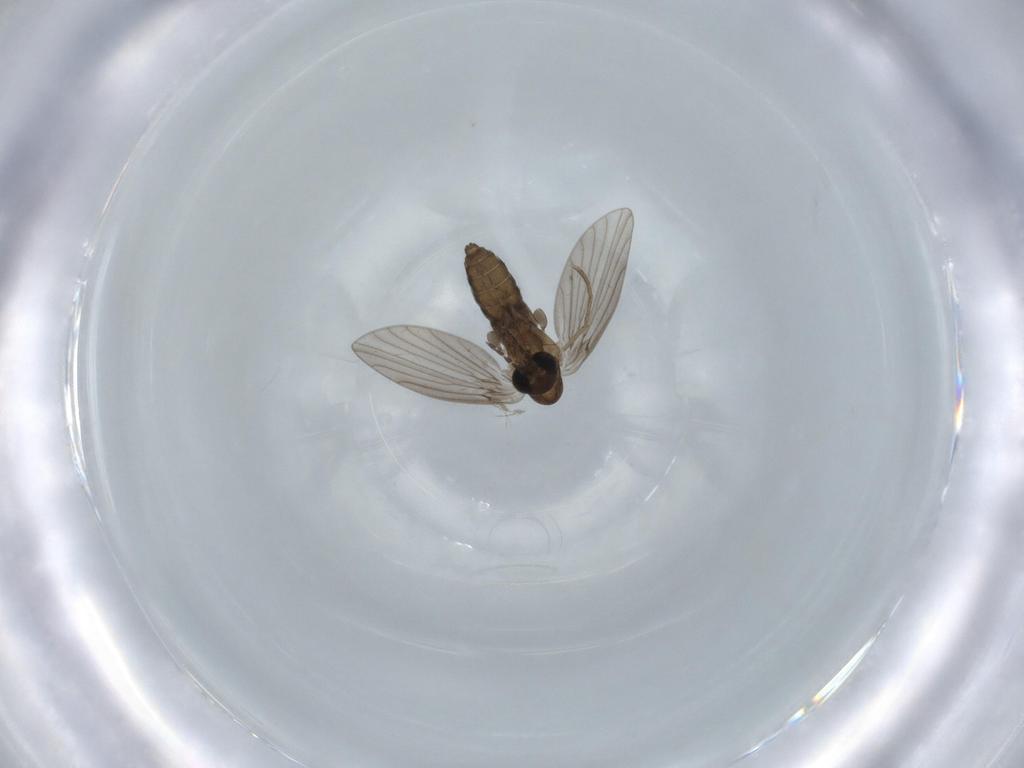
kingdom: Animalia
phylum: Arthropoda
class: Insecta
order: Diptera
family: Psychodidae
